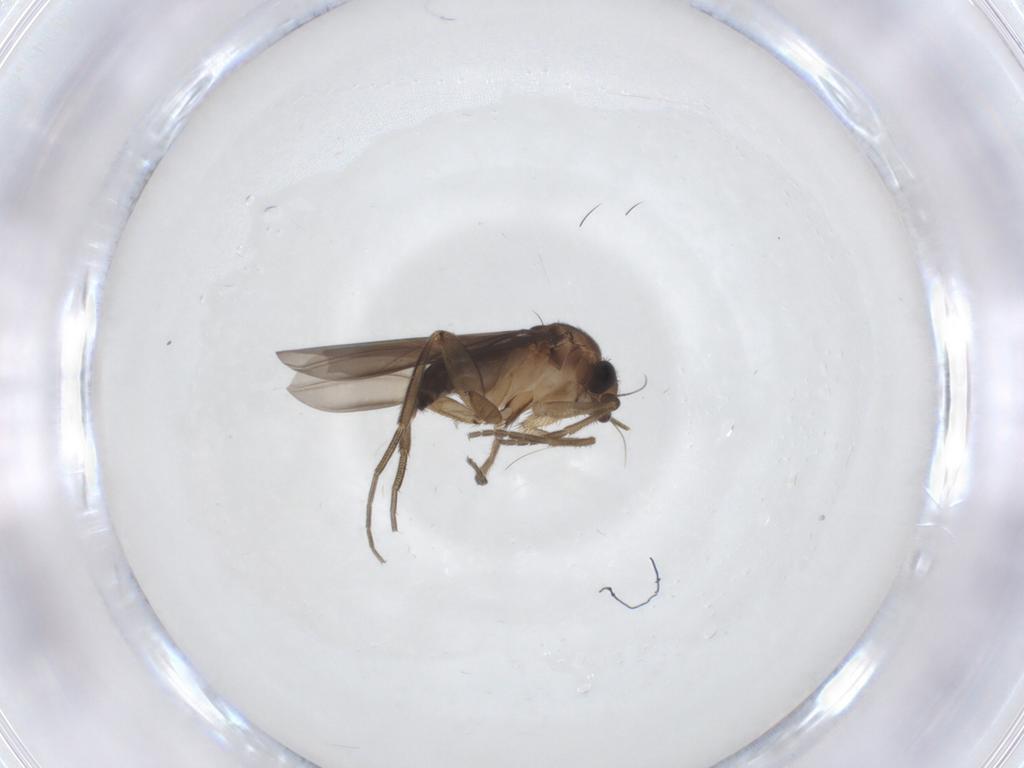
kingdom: Animalia
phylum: Arthropoda
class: Insecta
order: Diptera
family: Phoridae
